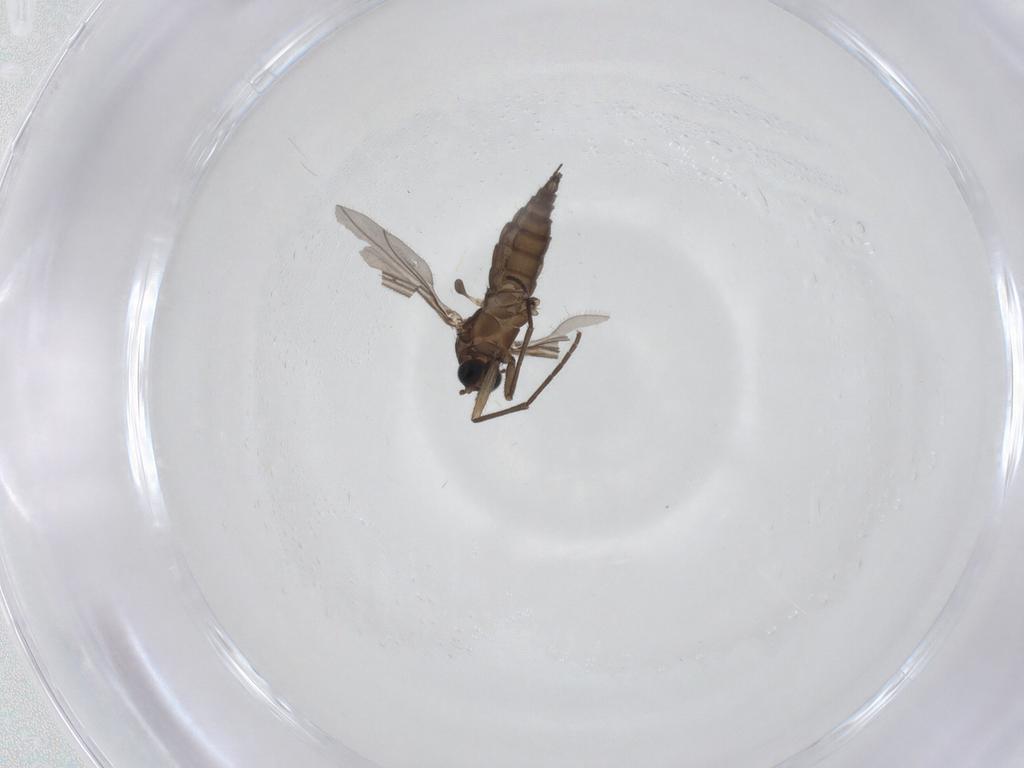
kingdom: Animalia
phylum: Arthropoda
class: Insecta
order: Diptera
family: Sciaridae
